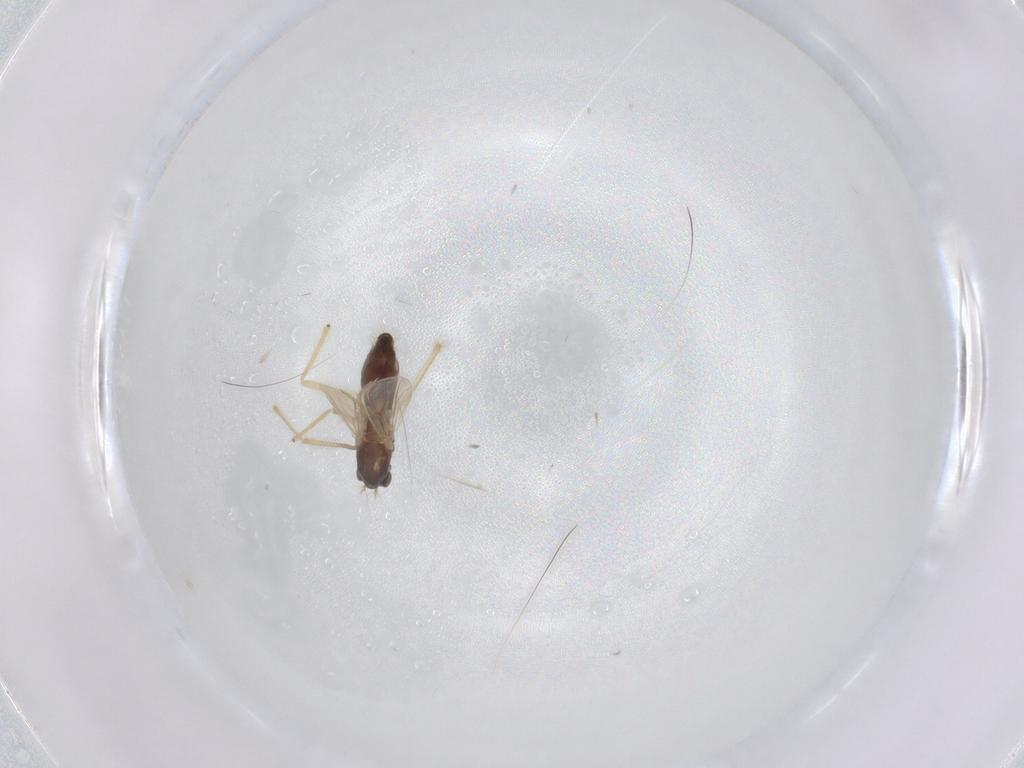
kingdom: Animalia
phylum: Arthropoda
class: Insecta
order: Diptera
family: Chironomidae
